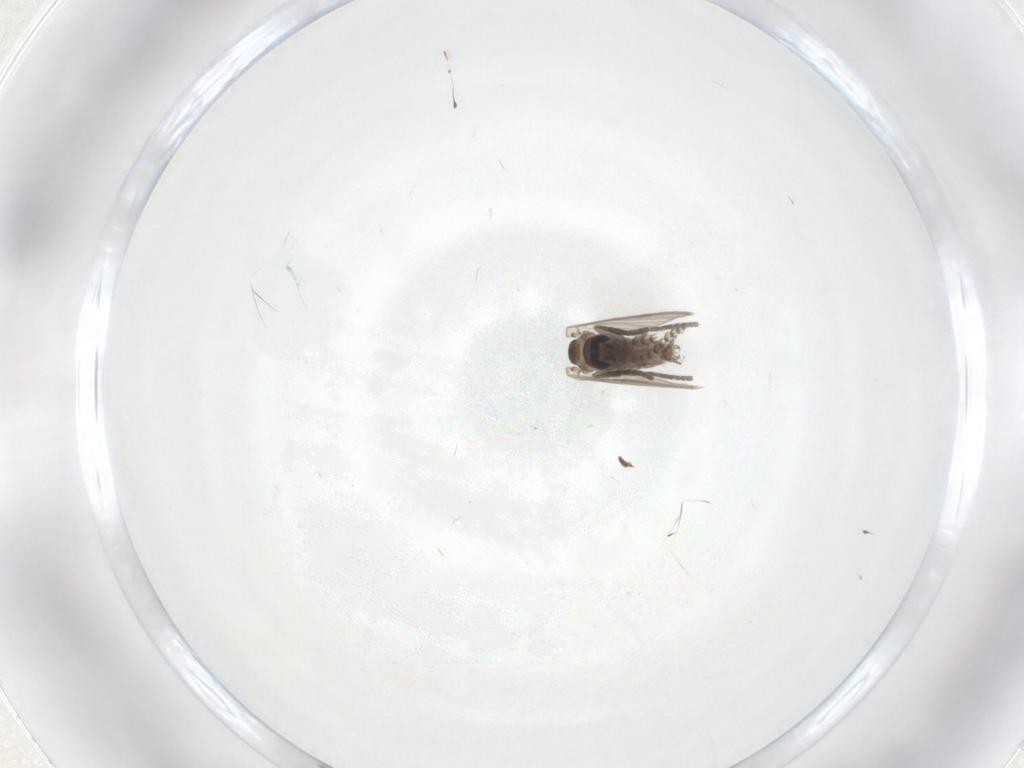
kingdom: Animalia
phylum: Arthropoda
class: Insecta
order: Diptera
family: Psychodidae
